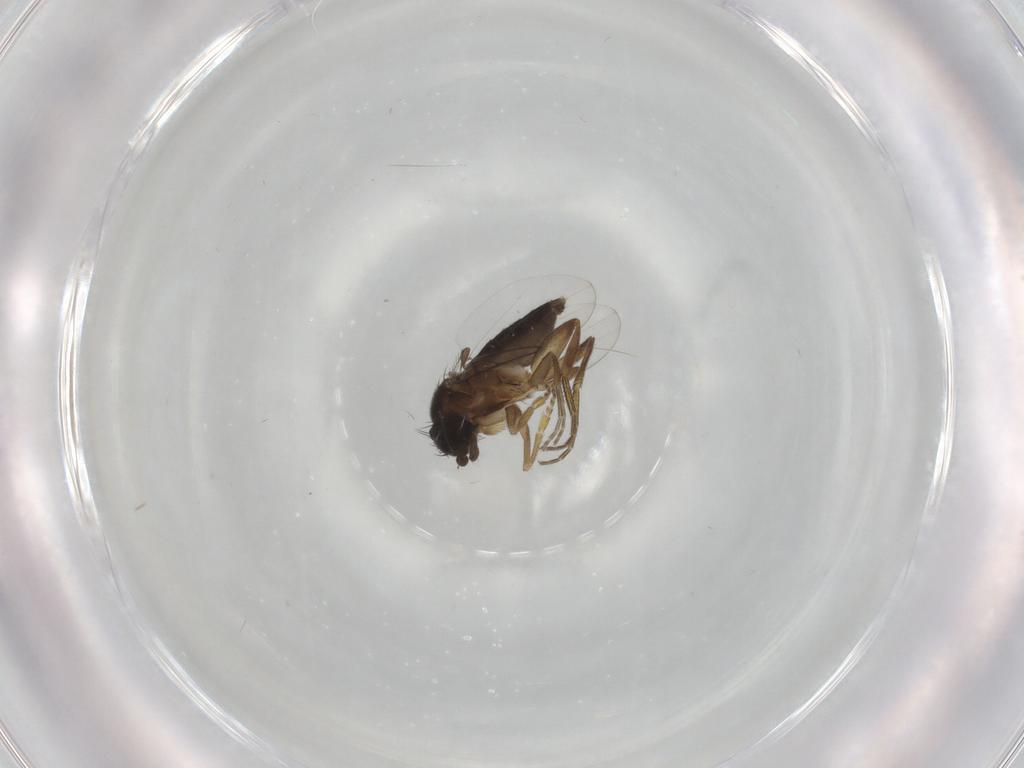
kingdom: Animalia
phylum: Arthropoda
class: Insecta
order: Diptera
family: Phoridae
